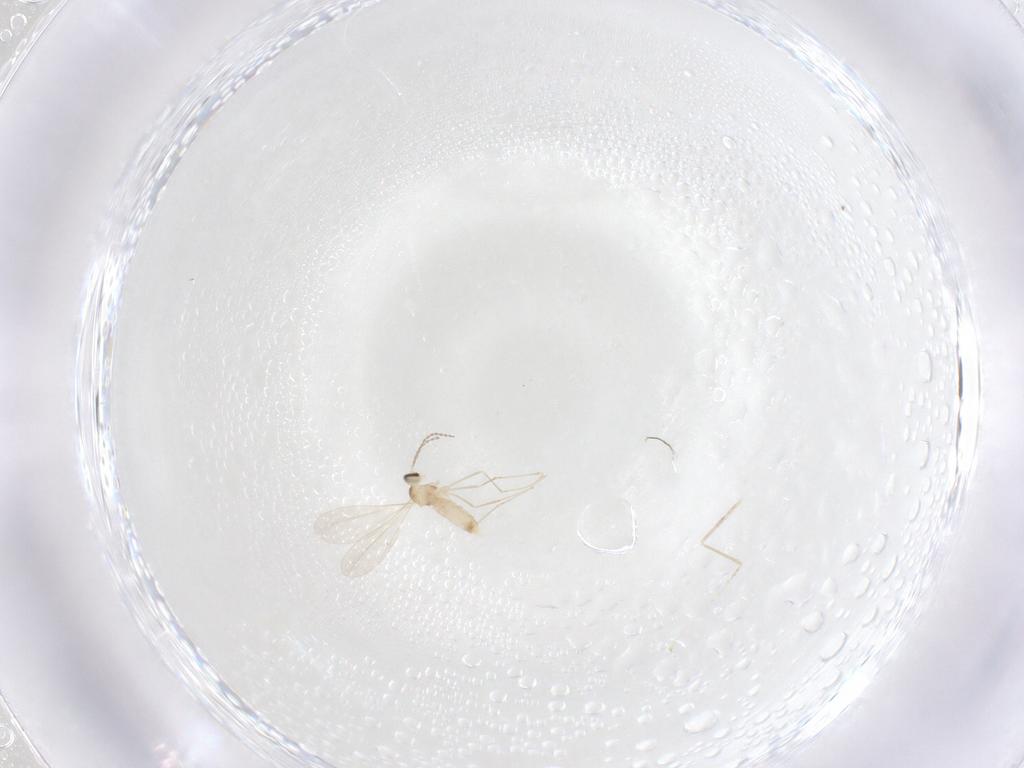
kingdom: Animalia
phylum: Arthropoda
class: Insecta
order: Diptera
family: Cecidomyiidae
